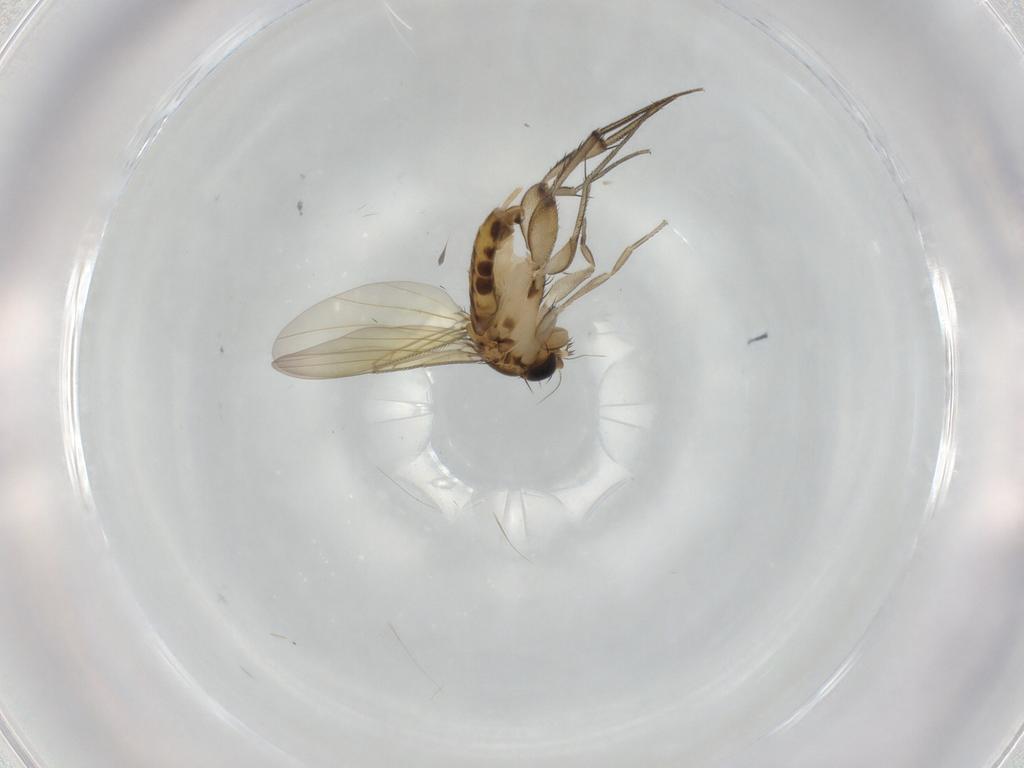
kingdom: Animalia
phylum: Arthropoda
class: Insecta
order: Diptera
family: Phoridae
